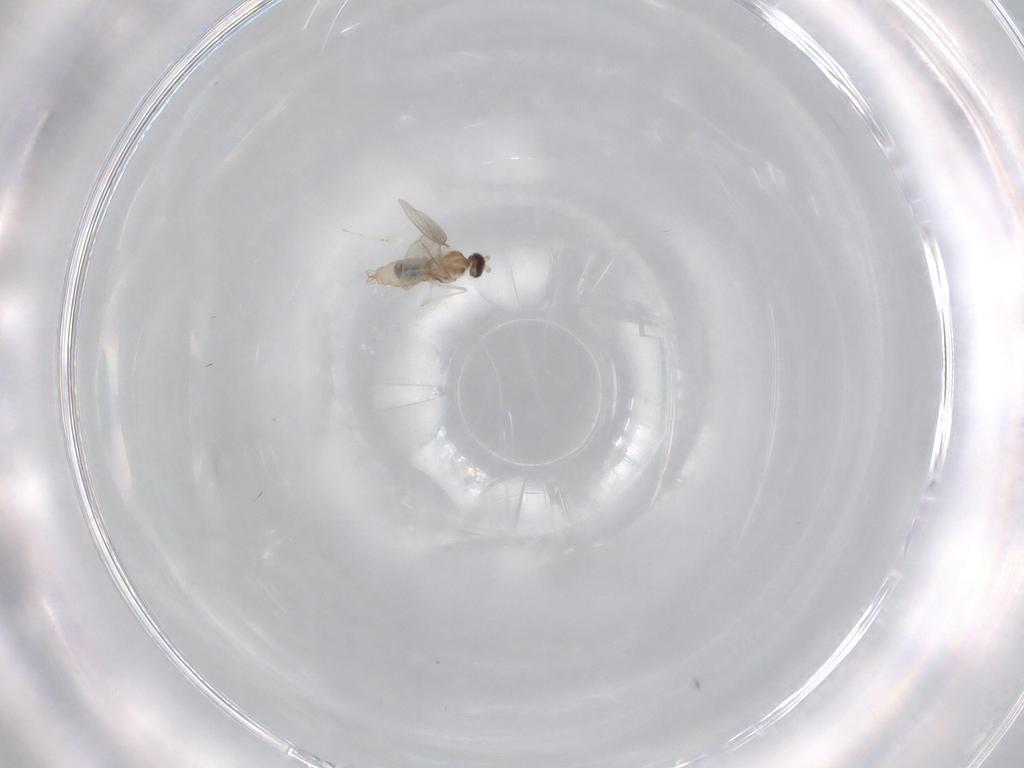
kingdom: Animalia
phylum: Arthropoda
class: Insecta
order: Diptera
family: Cecidomyiidae
